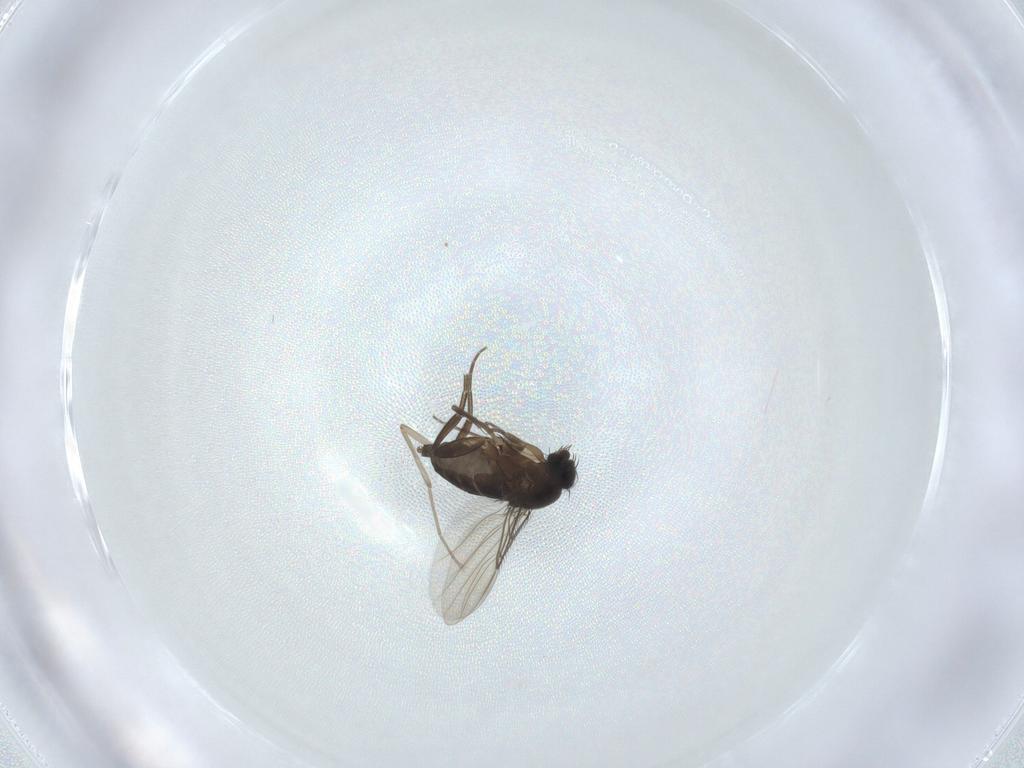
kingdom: Animalia
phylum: Arthropoda
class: Insecta
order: Diptera
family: Phoridae
